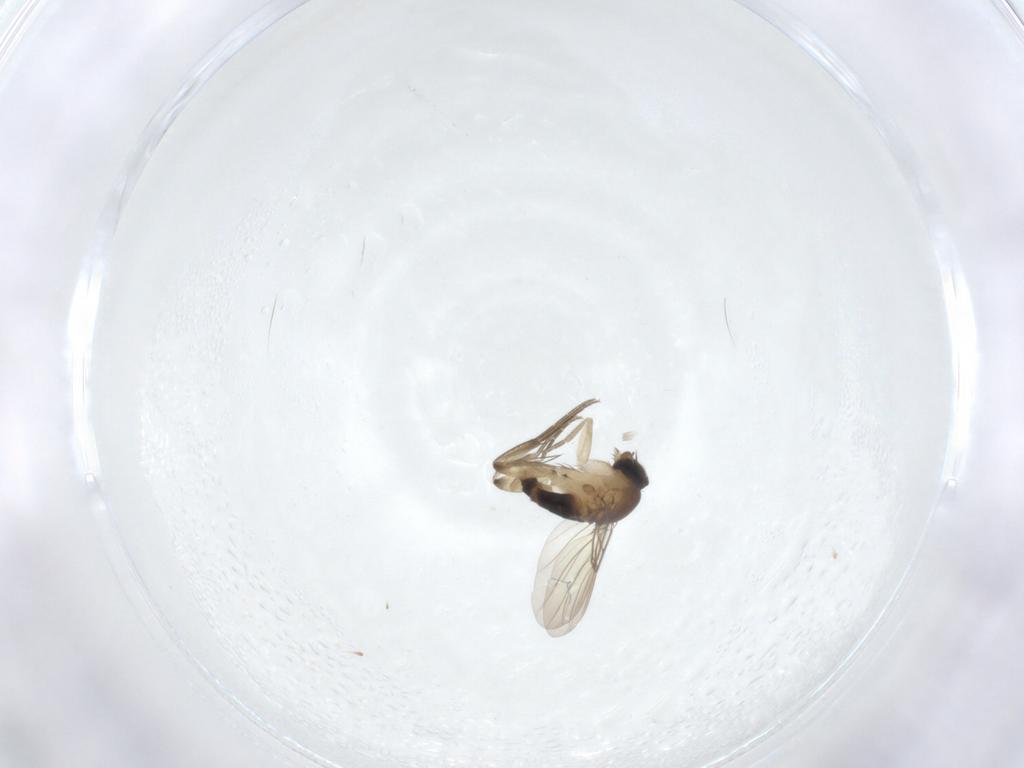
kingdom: Animalia
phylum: Arthropoda
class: Insecta
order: Diptera
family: Phoridae
